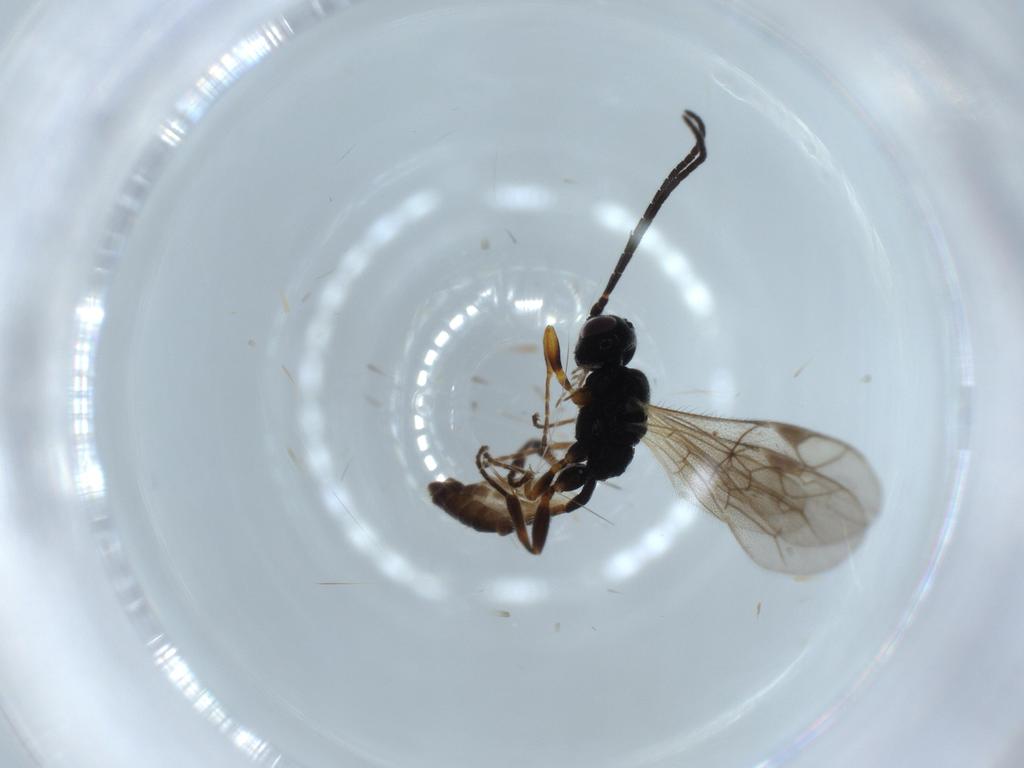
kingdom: Animalia
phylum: Arthropoda
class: Insecta
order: Hymenoptera
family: Ichneumonidae
